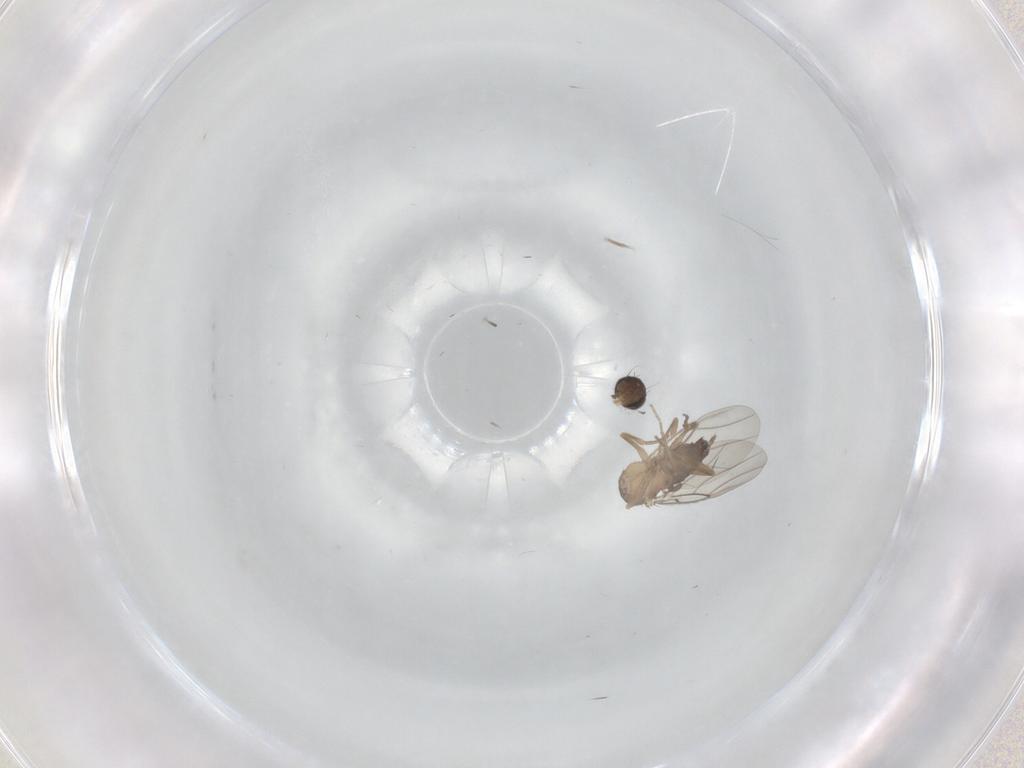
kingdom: Animalia
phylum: Arthropoda
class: Insecta
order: Diptera
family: Phoridae
